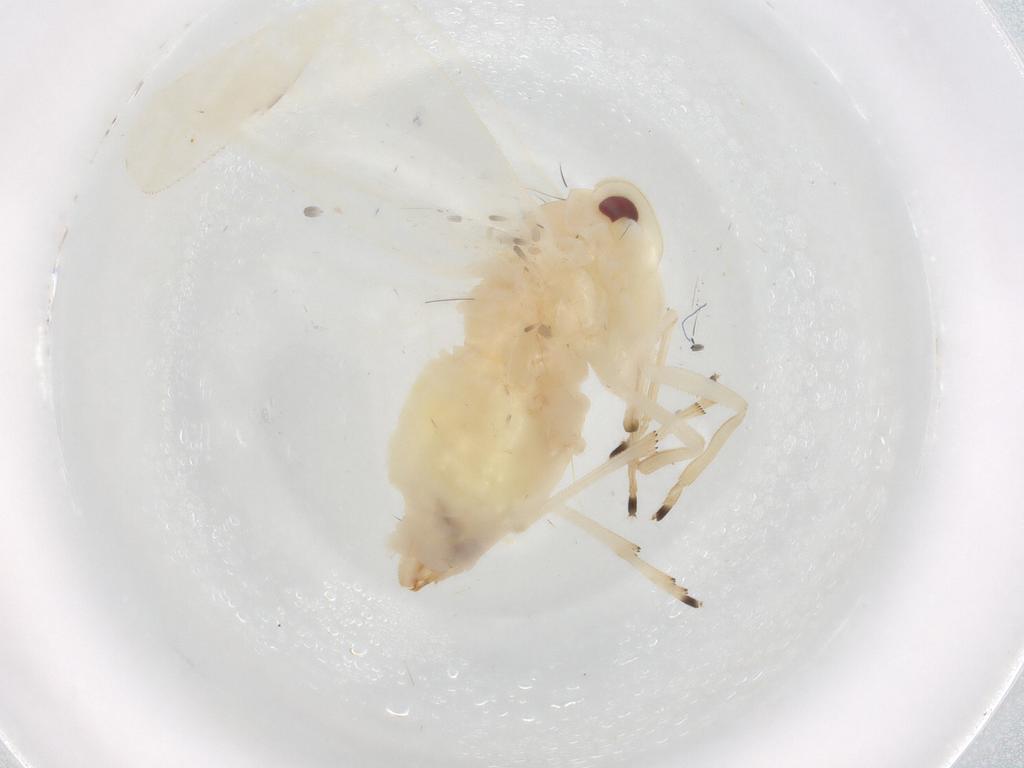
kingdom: Animalia
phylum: Arthropoda
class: Insecta
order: Hemiptera
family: Derbidae
